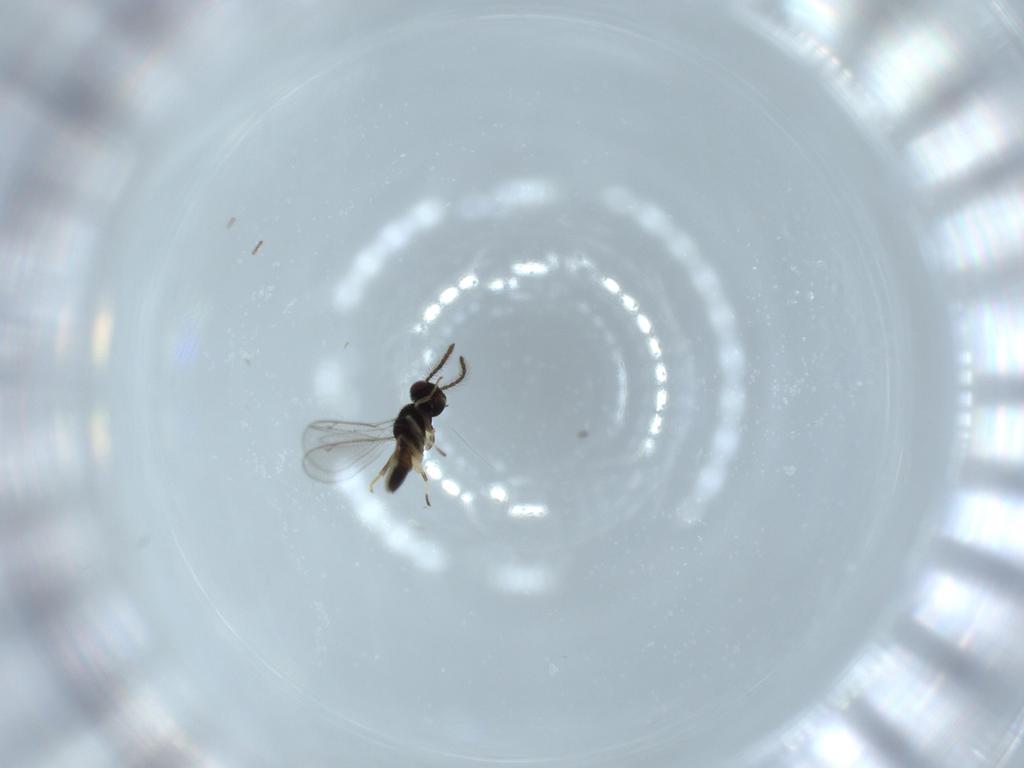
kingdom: Animalia
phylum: Arthropoda
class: Insecta
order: Hymenoptera
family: Eupelmidae
